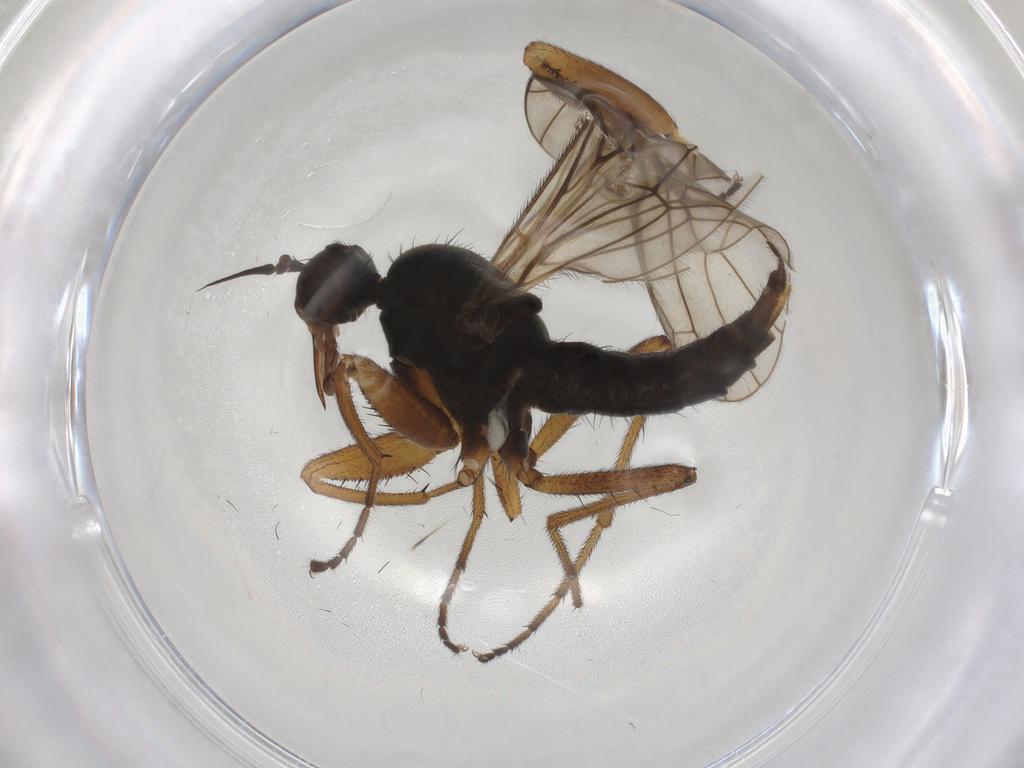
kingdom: Animalia
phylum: Arthropoda
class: Insecta
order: Diptera
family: Empididae
